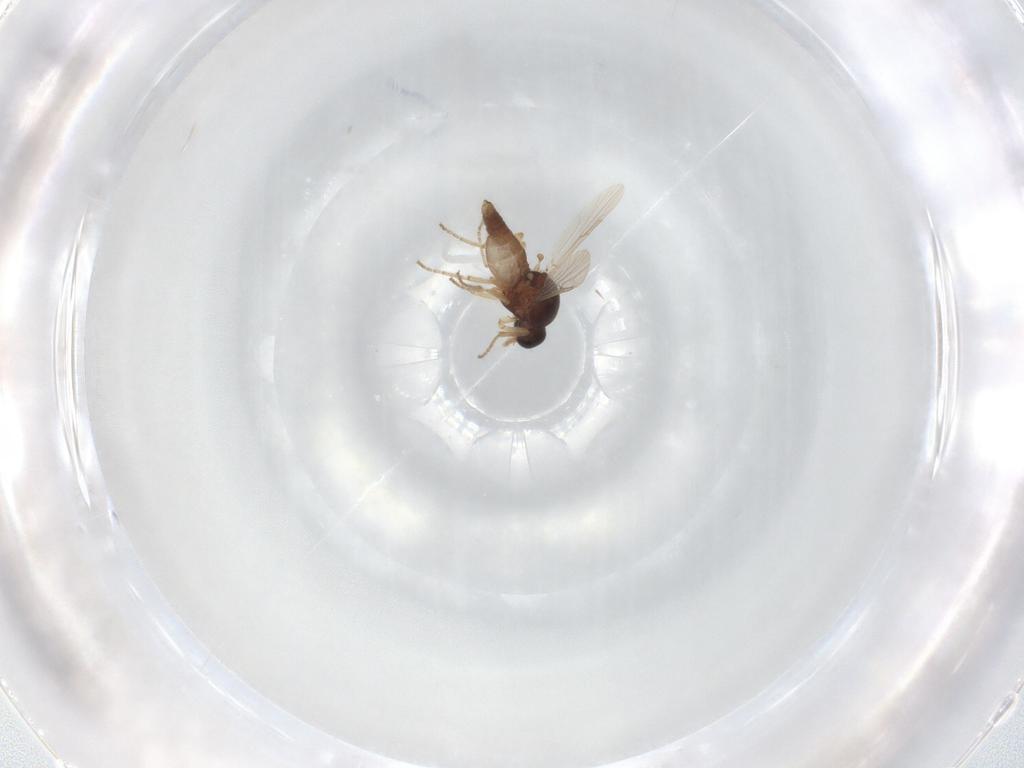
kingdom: Animalia
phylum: Arthropoda
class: Insecta
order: Diptera
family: Ceratopogonidae
